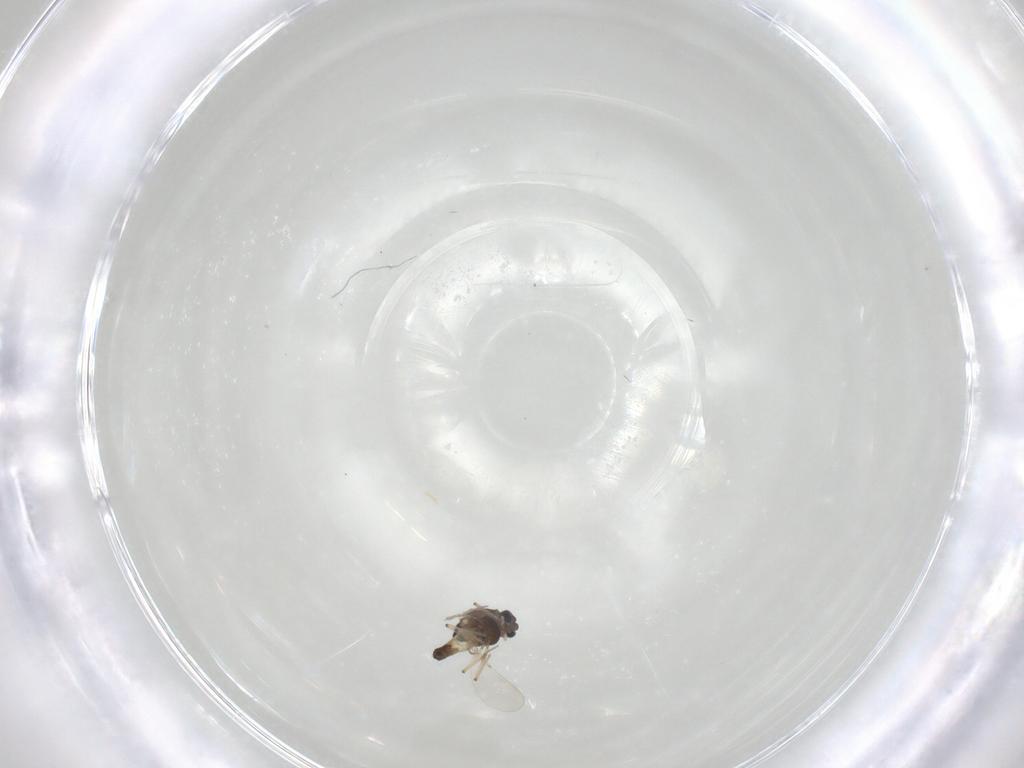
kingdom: Animalia
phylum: Arthropoda
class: Insecta
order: Diptera
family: Chironomidae
